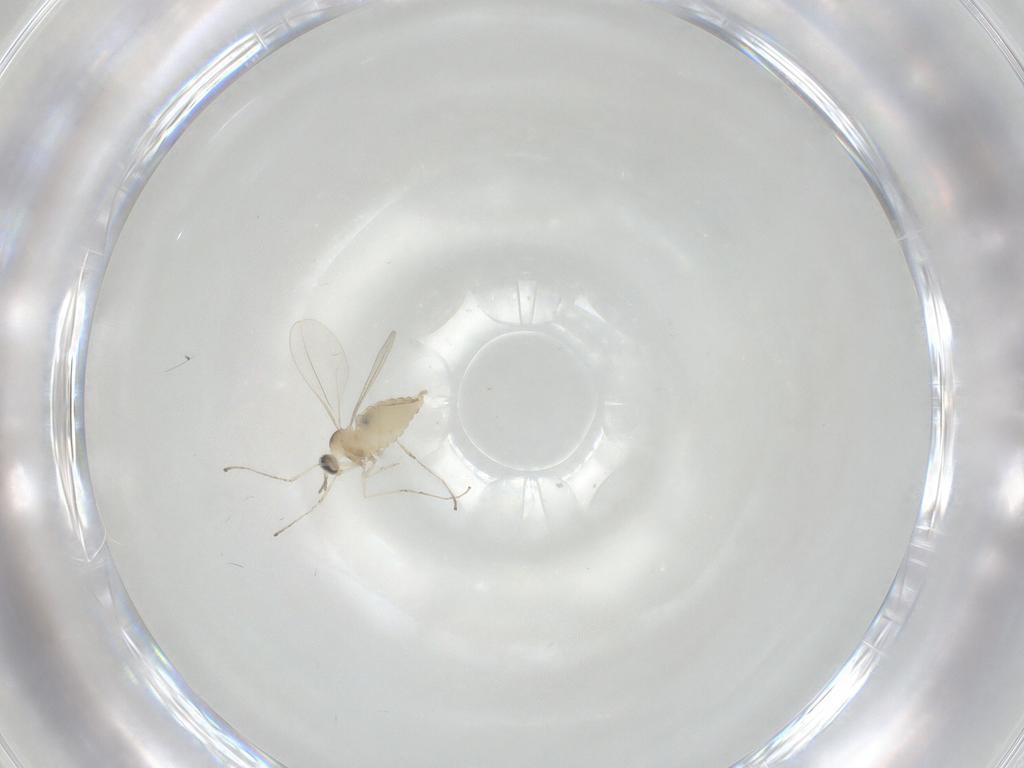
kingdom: Animalia
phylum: Arthropoda
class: Insecta
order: Diptera
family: Cecidomyiidae
